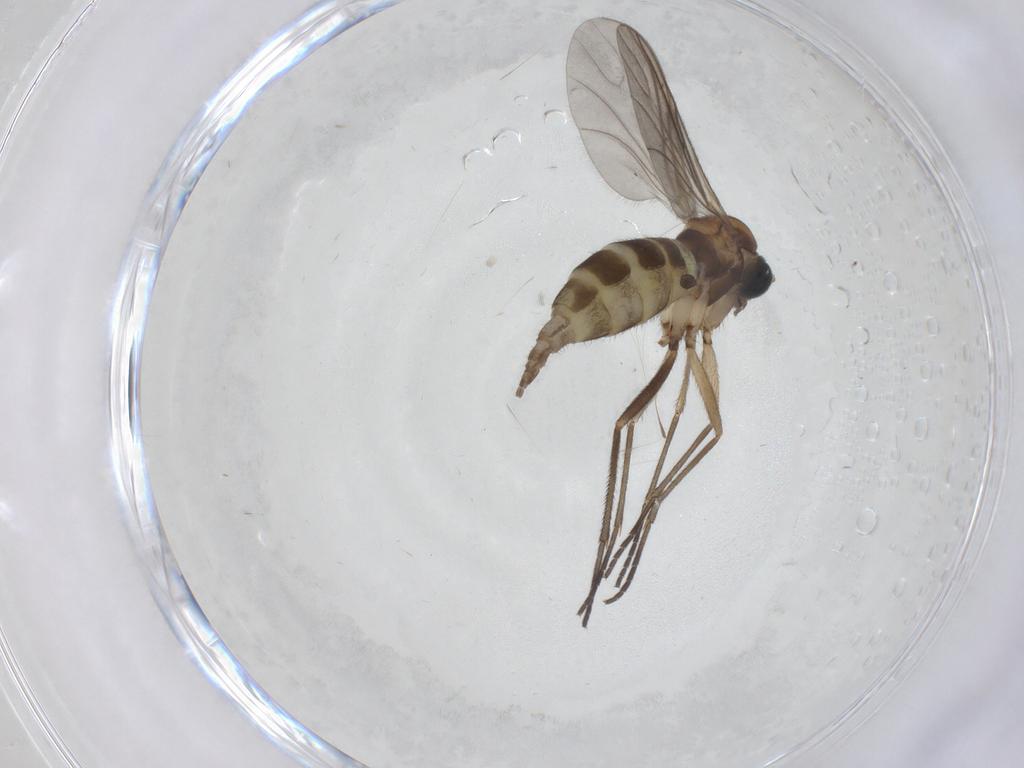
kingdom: Animalia
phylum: Arthropoda
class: Insecta
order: Diptera
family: Sciaridae
